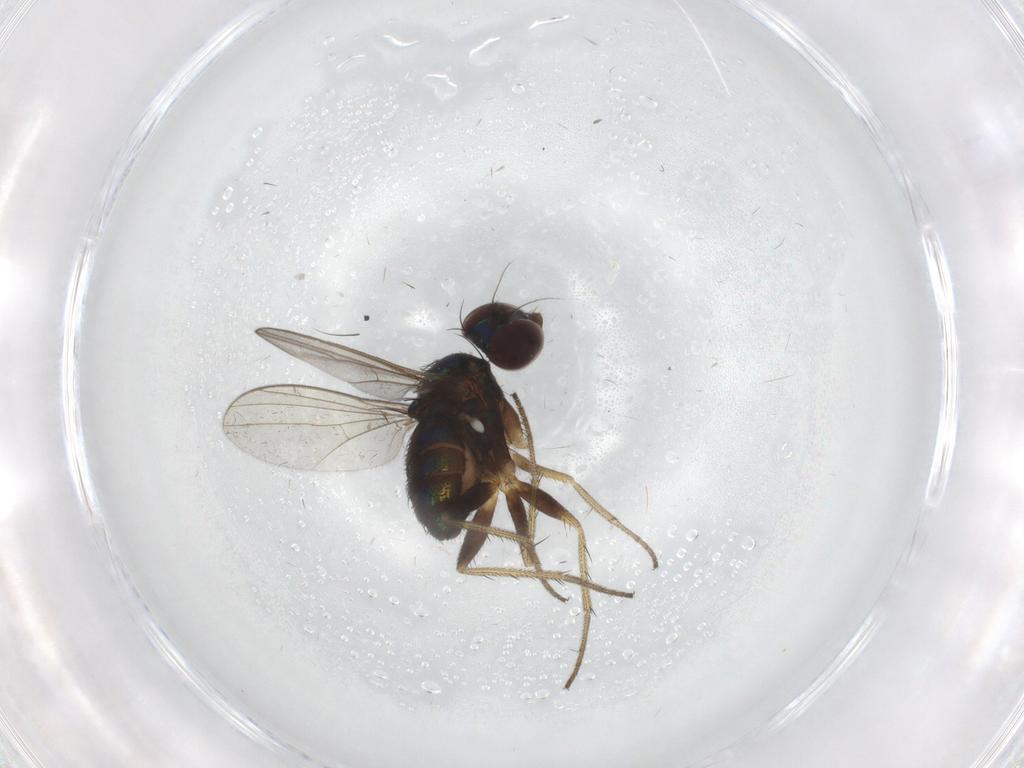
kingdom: Animalia
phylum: Arthropoda
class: Insecta
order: Diptera
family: Dolichopodidae
